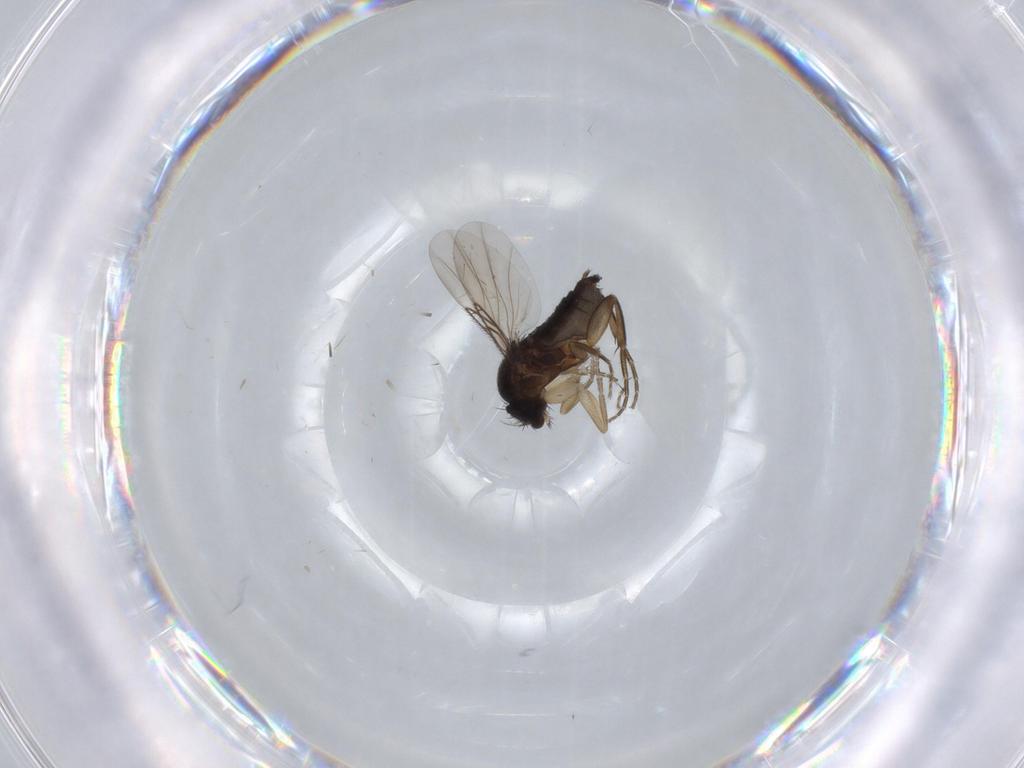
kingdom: Animalia
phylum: Arthropoda
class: Insecta
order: Diptera
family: Phoridae
